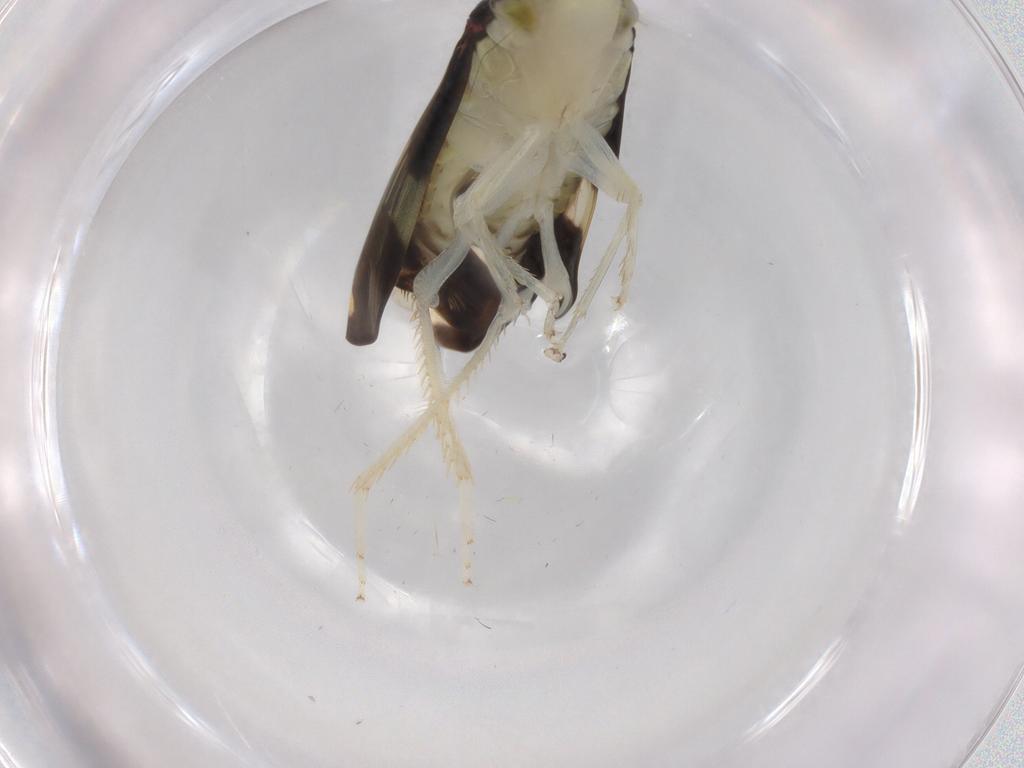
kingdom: Animalia
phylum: Arthropoda
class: Insecta
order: Hemiptera
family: Cicadellidae
